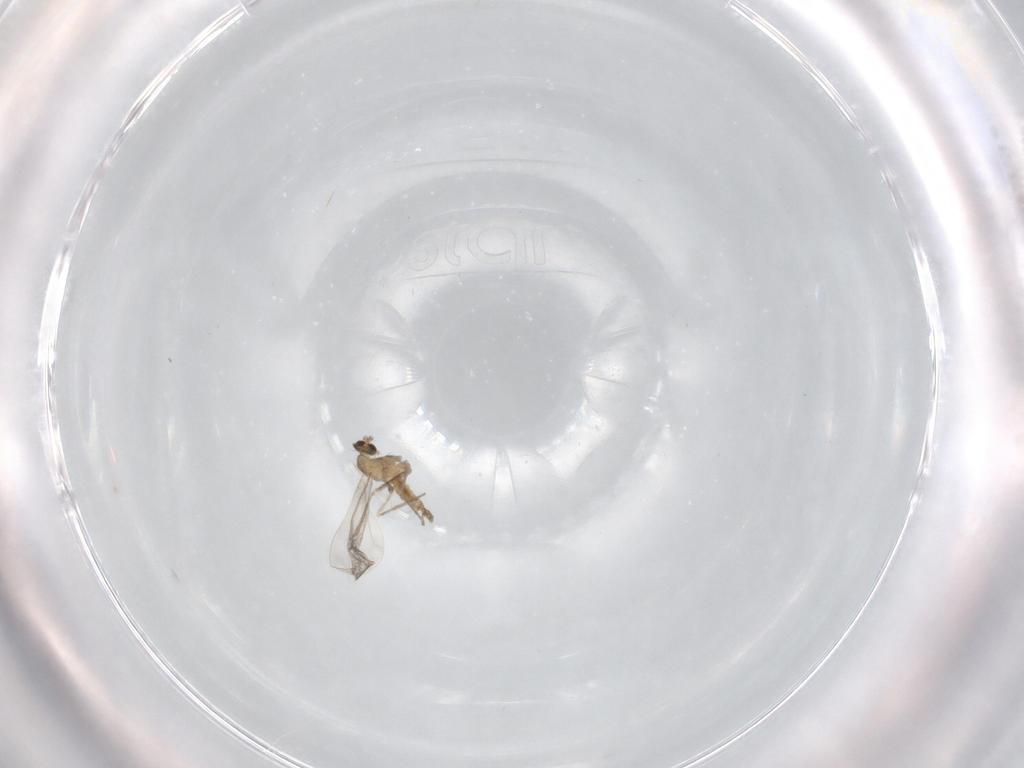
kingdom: Animalia
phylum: Arthropoda
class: Insecta
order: Diptera
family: Cecidomyiidae
